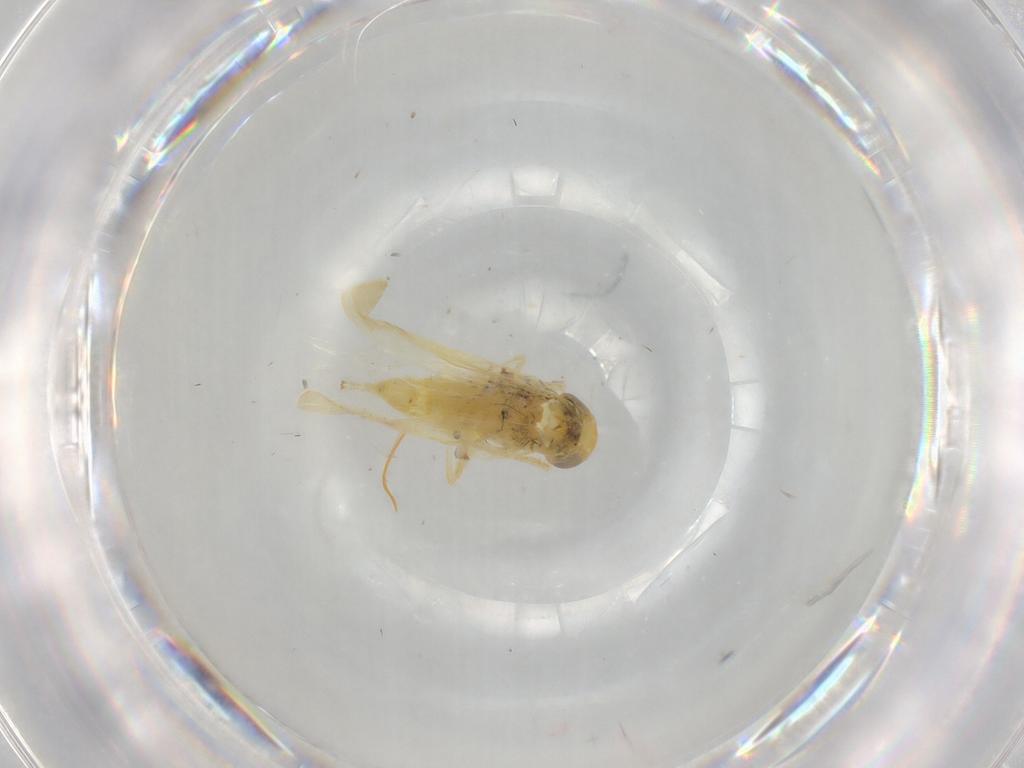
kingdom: Animalia
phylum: Arthropoda
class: Insecta
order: Hemiptera
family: Cicadellidae
